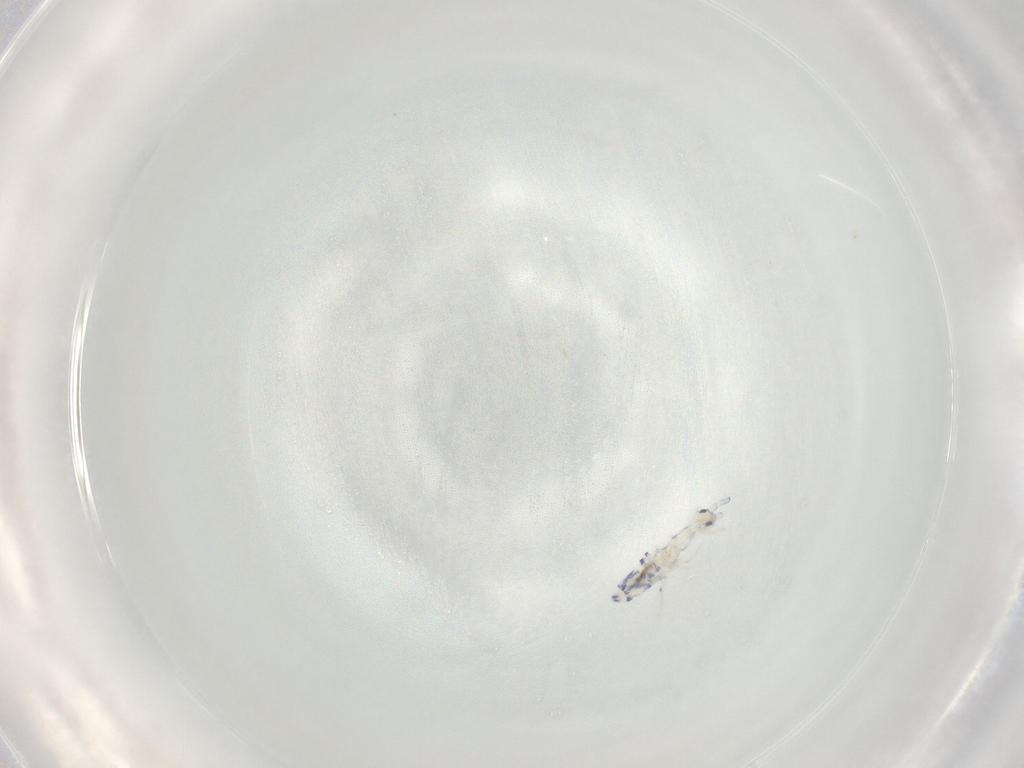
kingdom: Animalia
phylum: Arthropoda
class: Collembola
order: Entomobryomorpha
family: Entomobryidae
